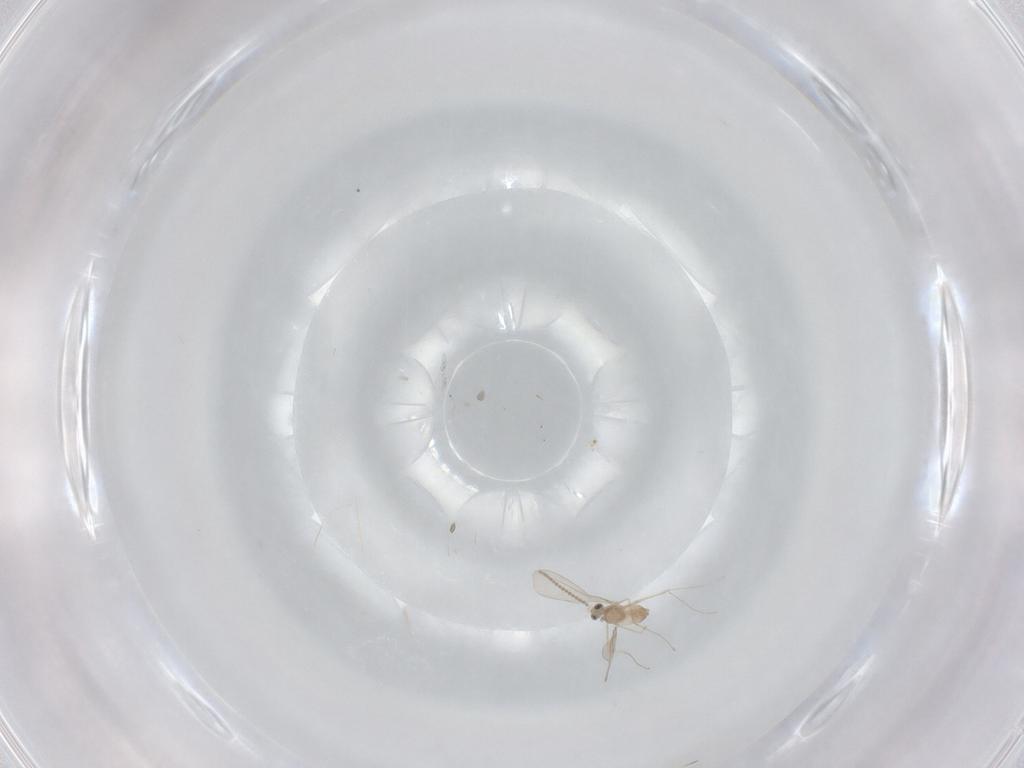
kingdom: Animalia
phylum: Arthropoda
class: Insecta
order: Diptera
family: Cecidomyiidae
